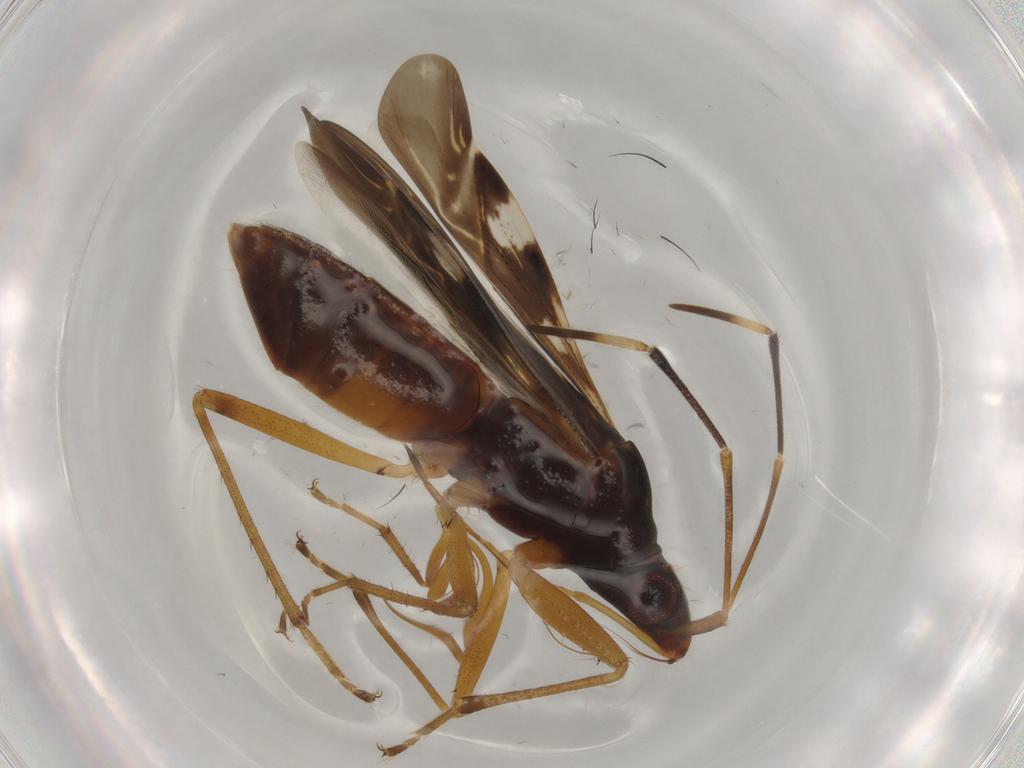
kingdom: Animalia
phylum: Arthropoda
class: Insecta
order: Hemiptera
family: Rhyparochromidae
